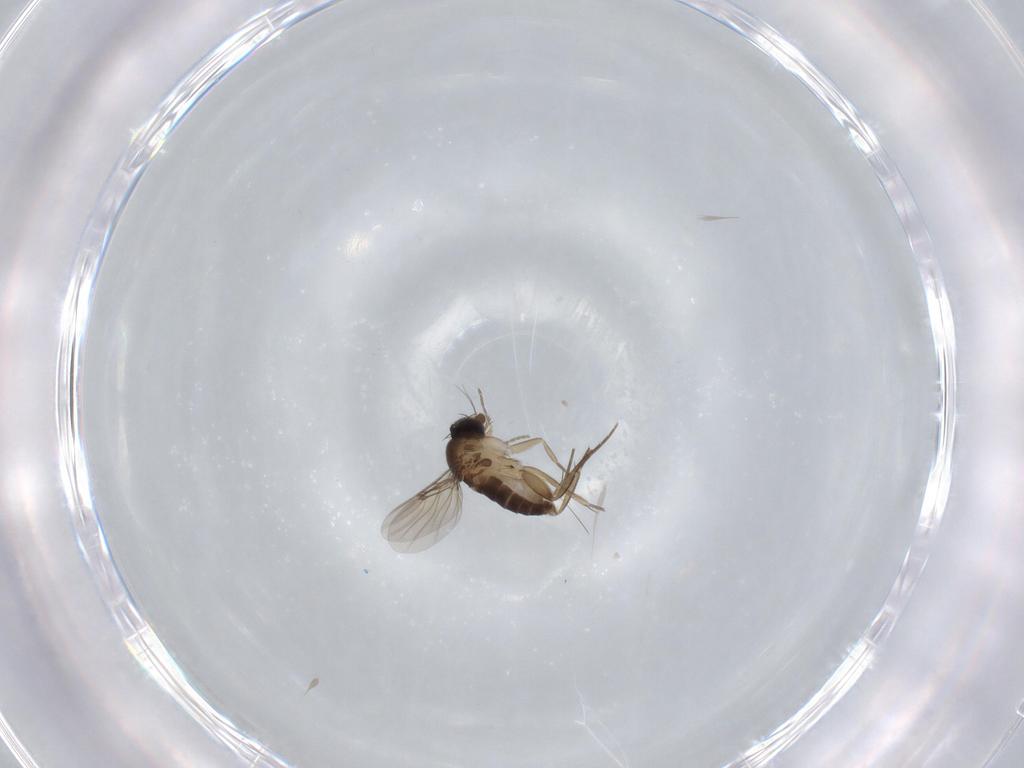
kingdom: Animalia
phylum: Arthropoda
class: Insecta
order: Diptera
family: Phoridae
